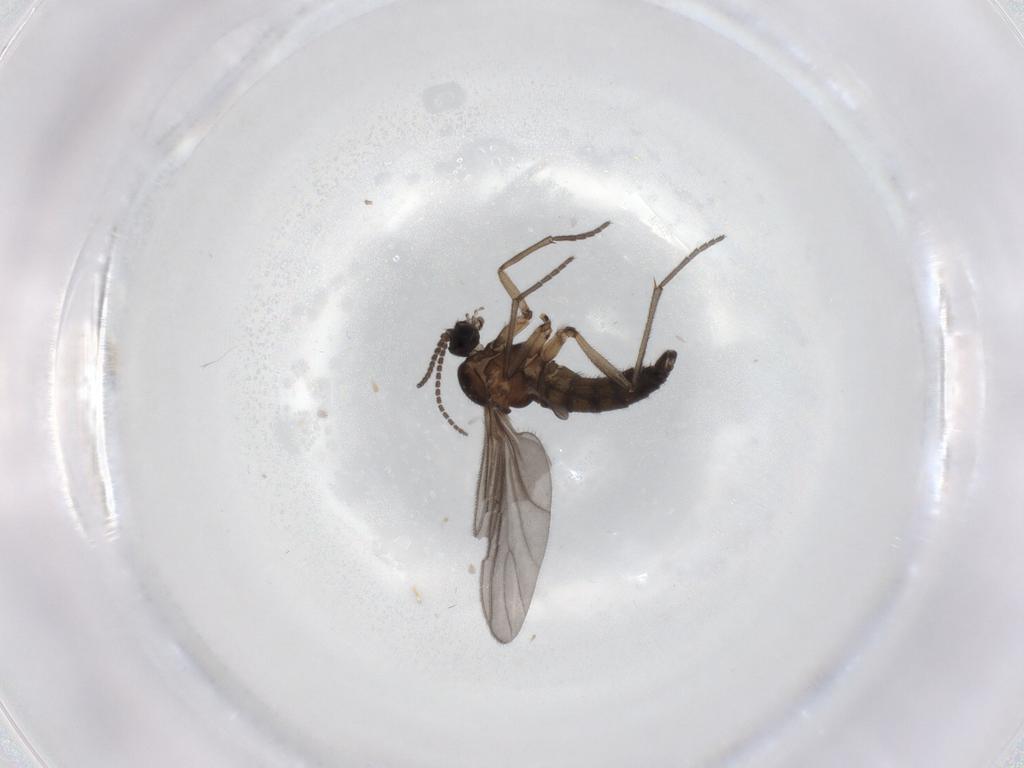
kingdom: Animalia
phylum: Arthropoda
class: Insecta
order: Diptera
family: Sciaridae
